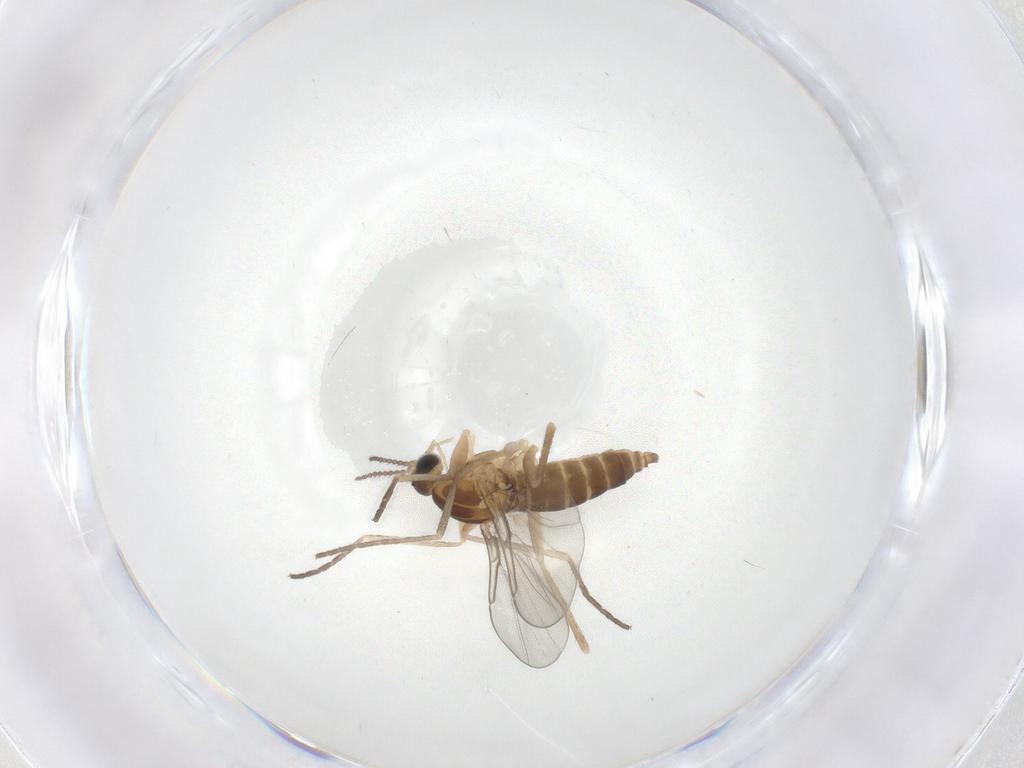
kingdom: Animalia
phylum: Arthropoda
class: Insecta
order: Diptera
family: Cecidomyiidae
